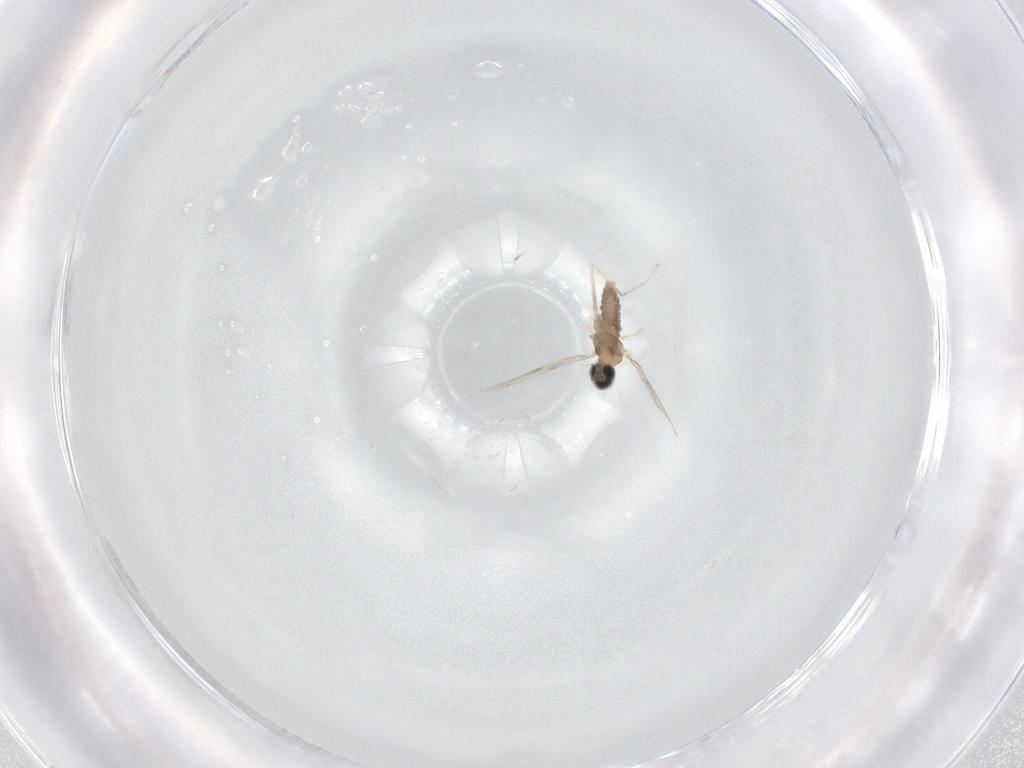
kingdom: Animalia
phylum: Arthropoda
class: Insecta
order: Diptera
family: Cecidomyiidae
